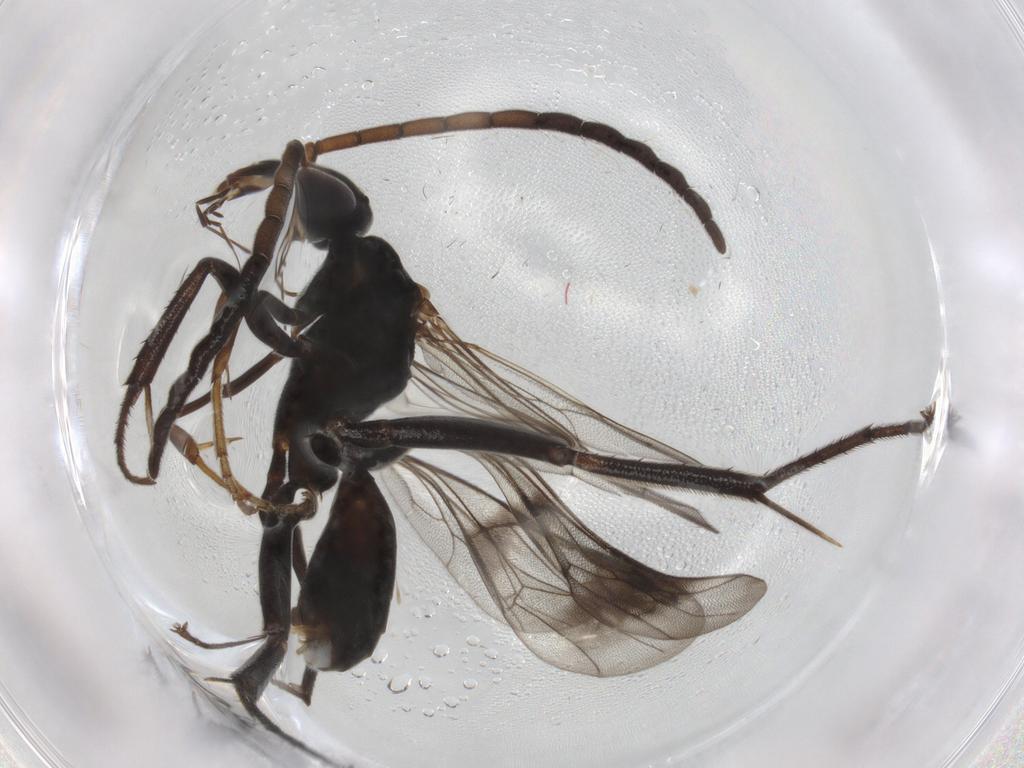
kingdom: Animalia
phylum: Arthropoda
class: Insecta
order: Hymenoptera
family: Pompilidae
